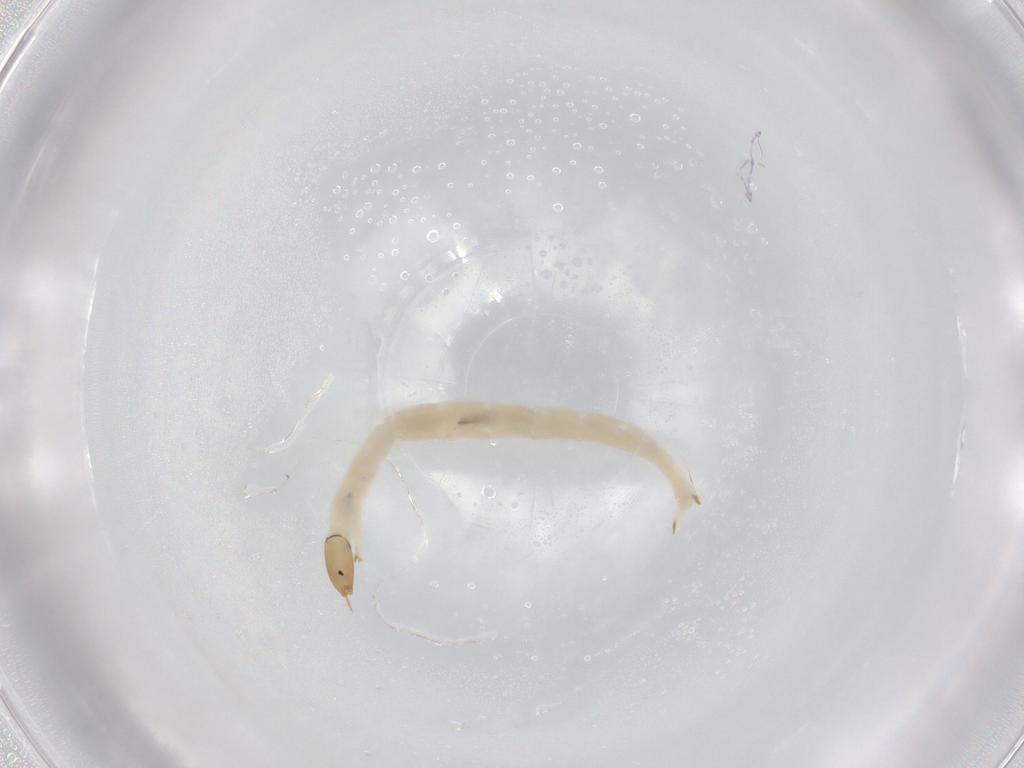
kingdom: Animalia
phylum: Arthropoda
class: Insecta
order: Diptera
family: Chironomidae
